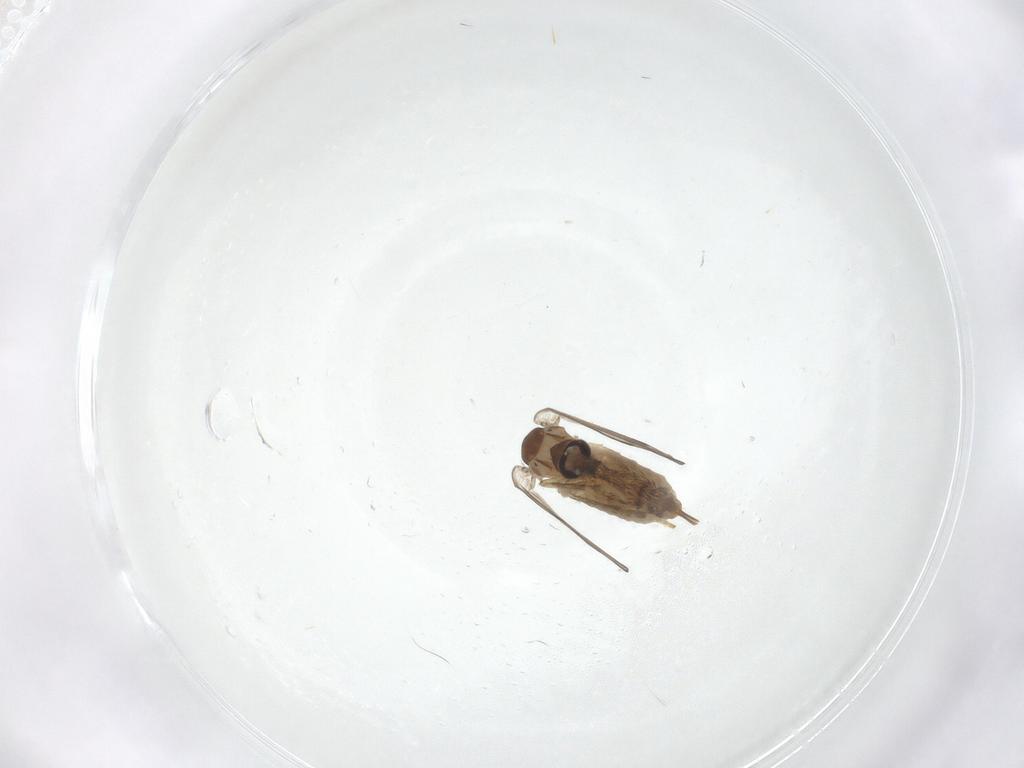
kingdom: Animalia
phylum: Arthropoda
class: Insecta
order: Diptera
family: Psychodidae
